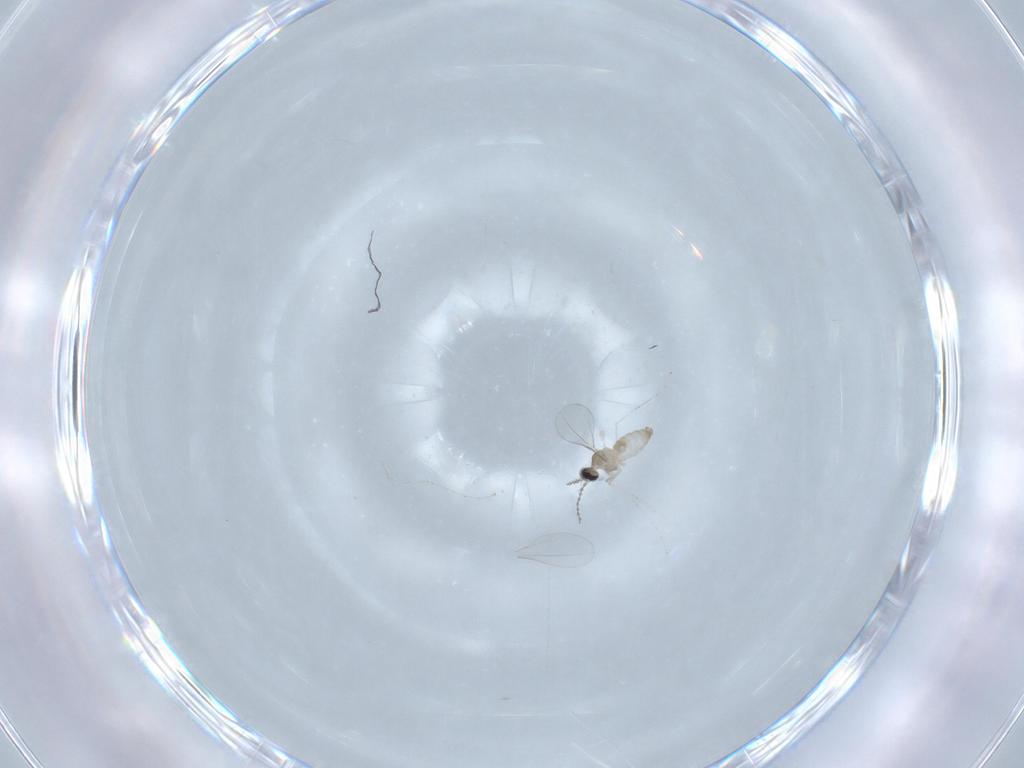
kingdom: Animalia
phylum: Arthropoda
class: Insecta
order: Diptera
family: Cecidomyiidae
